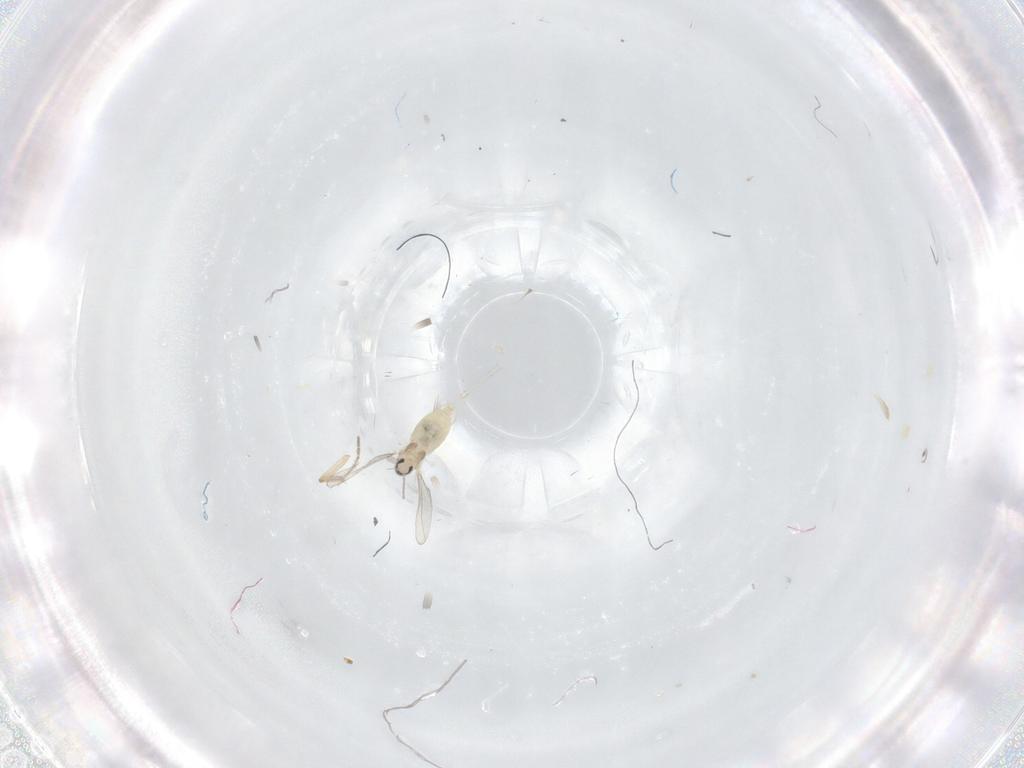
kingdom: Animalia
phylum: Arthropoda
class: Insecta
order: Diptera
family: Cecidomyiidae
